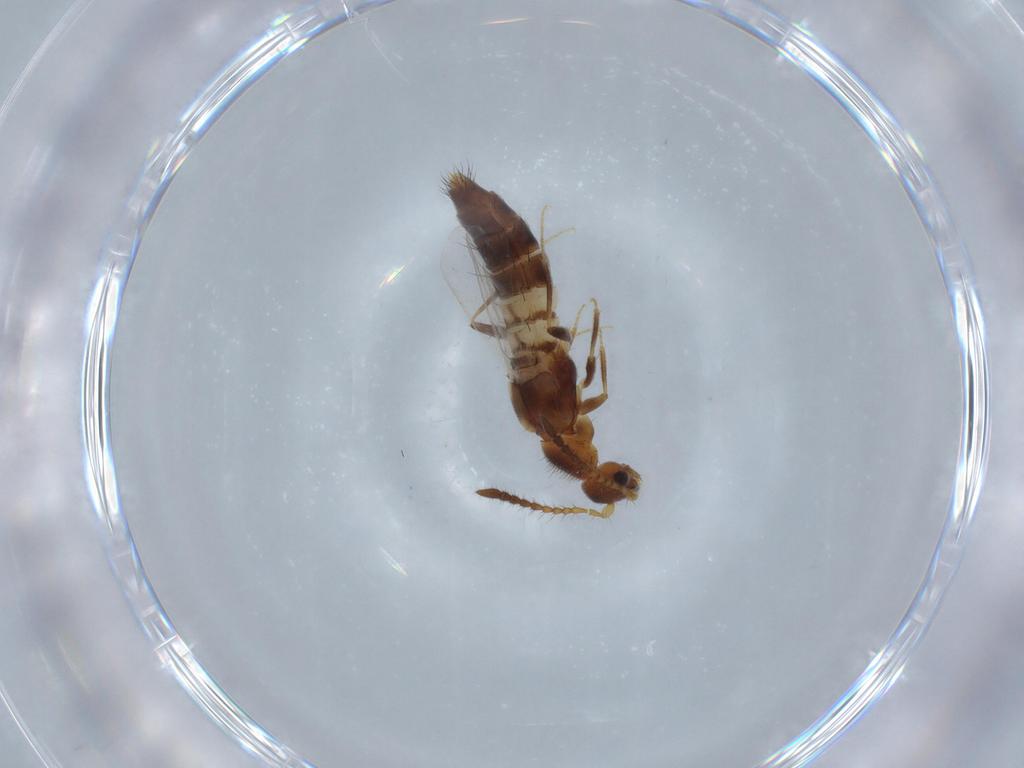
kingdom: Animalia
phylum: Arthropoda
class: Insecta
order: Coleoptera
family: Staphylinidae
